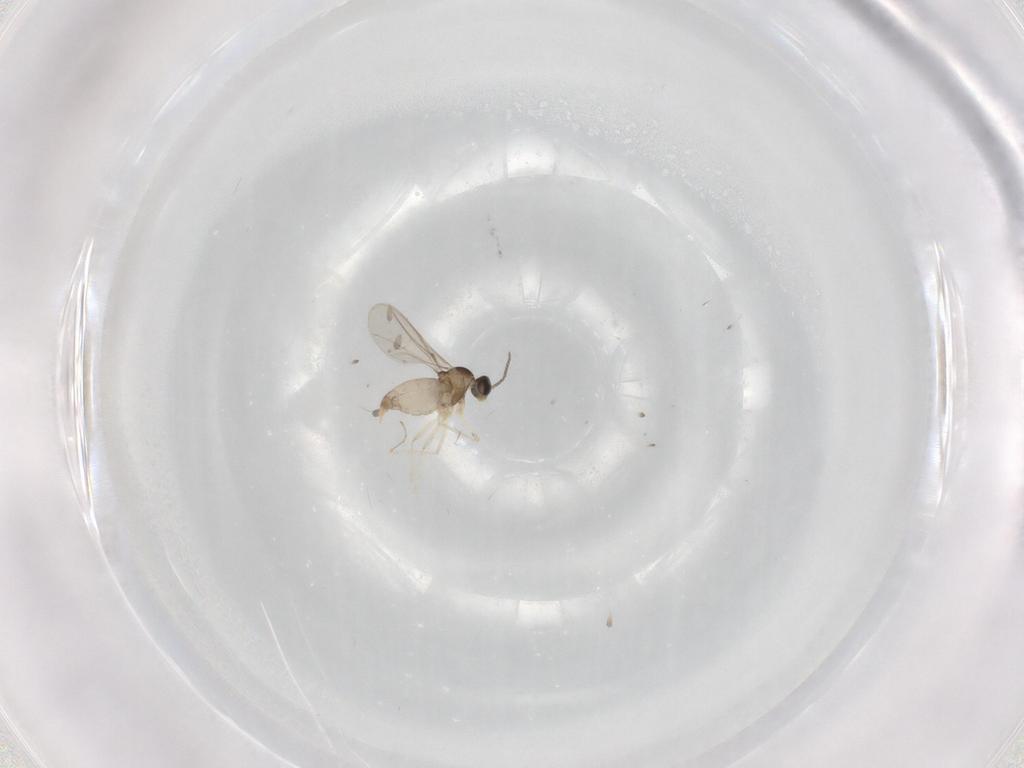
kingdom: Animalia
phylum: Arthropoda
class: Insecta
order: Diptera
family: Cecidomyiidae
